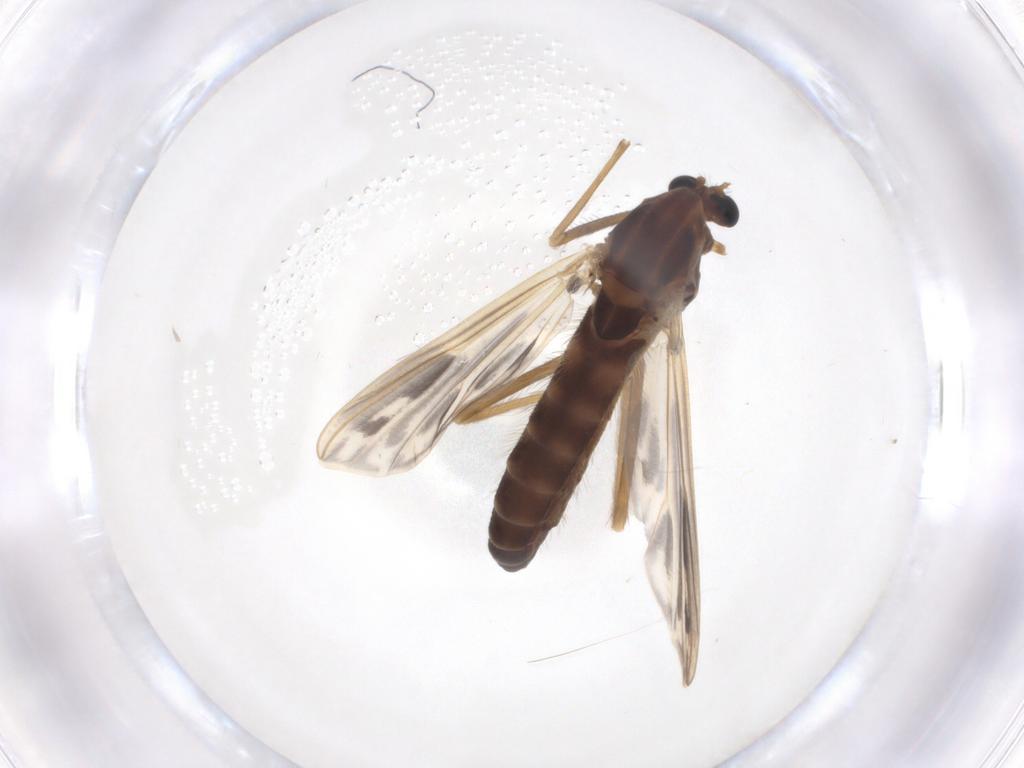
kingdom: Animalia
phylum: Arthropoda
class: Insecta
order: Diptera
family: Chironomidae
